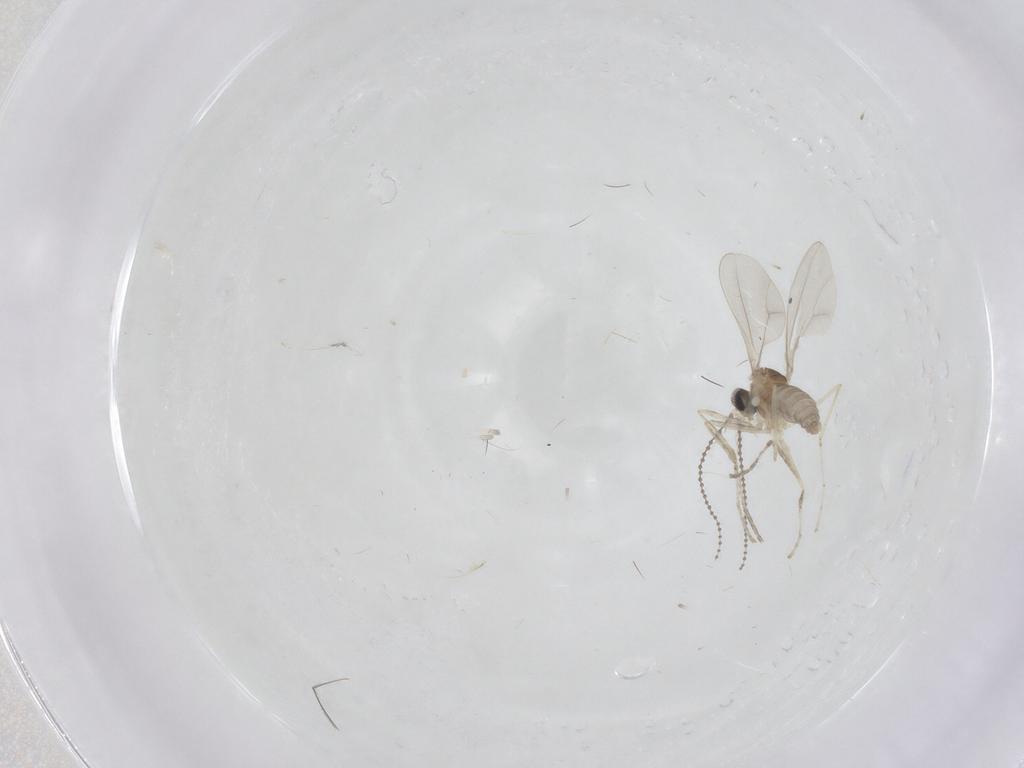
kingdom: Animalia
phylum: Arthropoda
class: Insecta
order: Diptera
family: Cecidomyiidae
